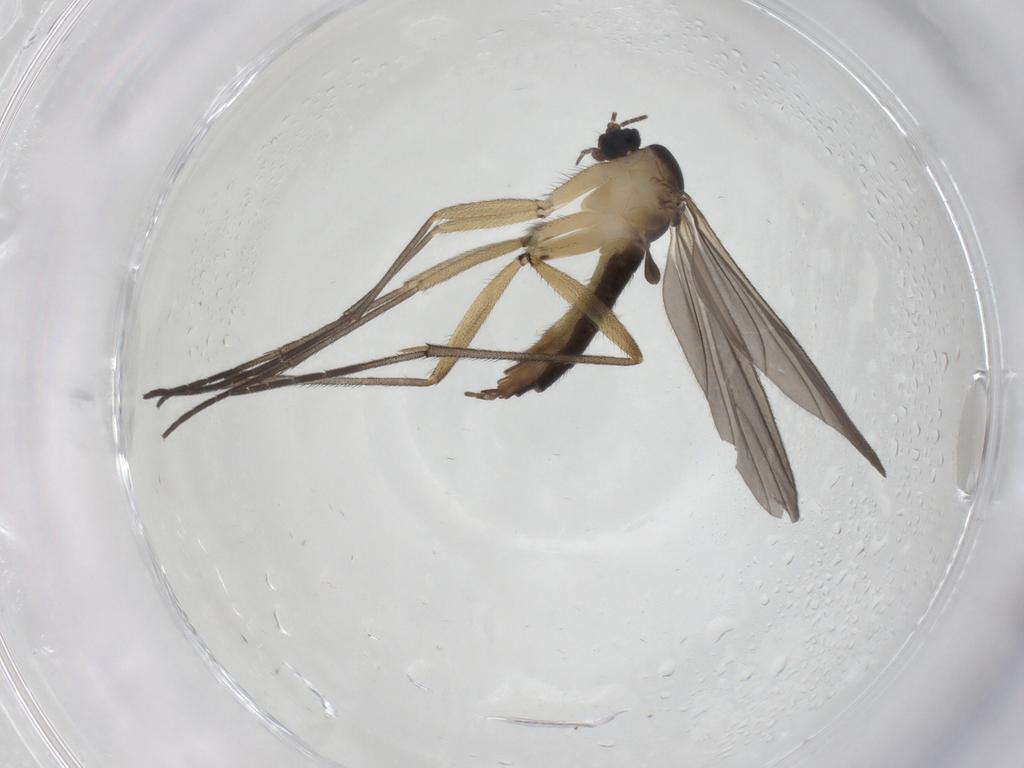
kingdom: Animalia
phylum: Arthropoda
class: Insecta
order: Diptera
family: Sciaridae
